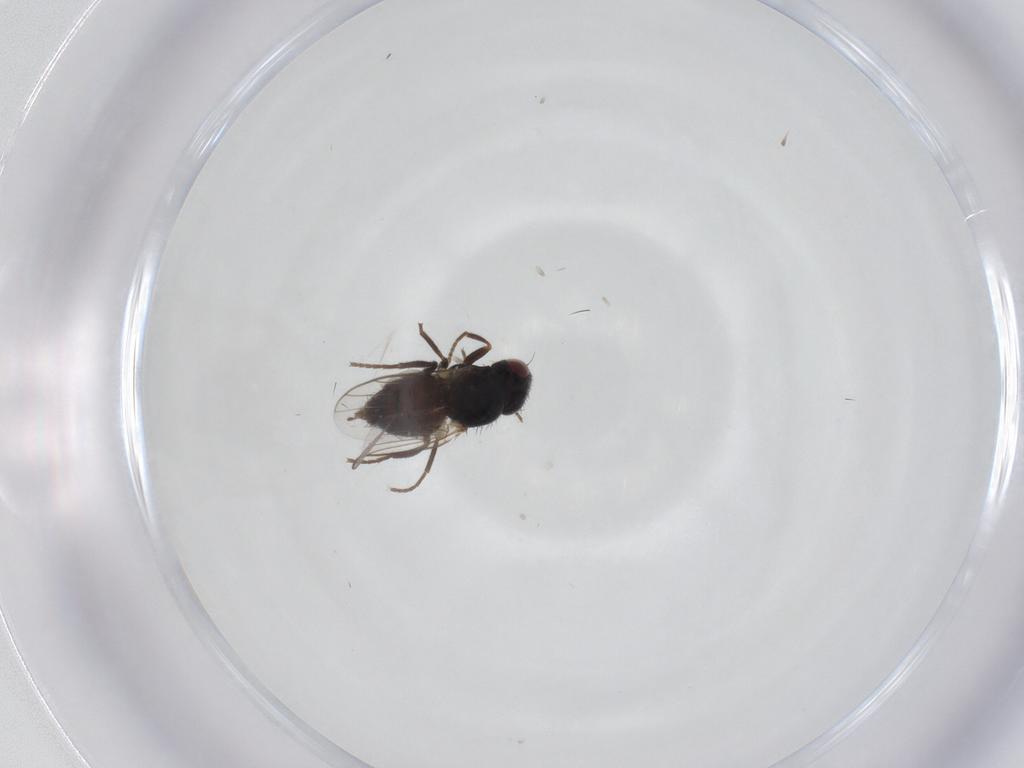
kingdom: Animalia
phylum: Arthropoda
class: Insecta
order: Diptera
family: Chloropidae
